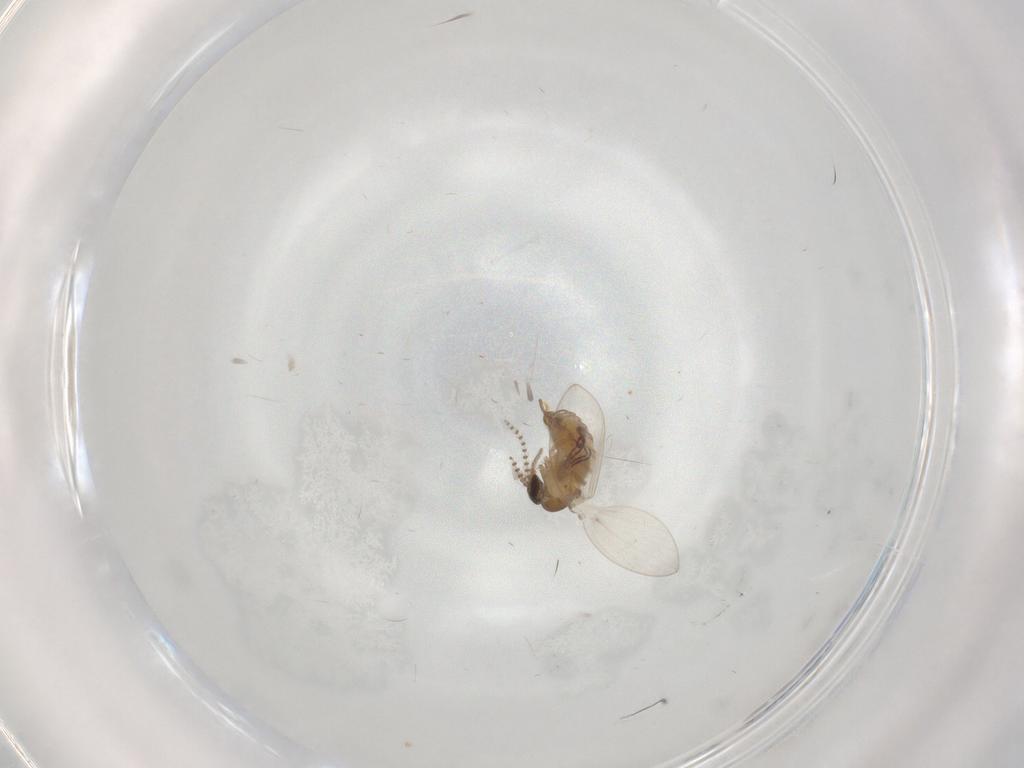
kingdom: Animalia
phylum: Arthropoda
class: Insecta
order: Diptera
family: Psychodidae
